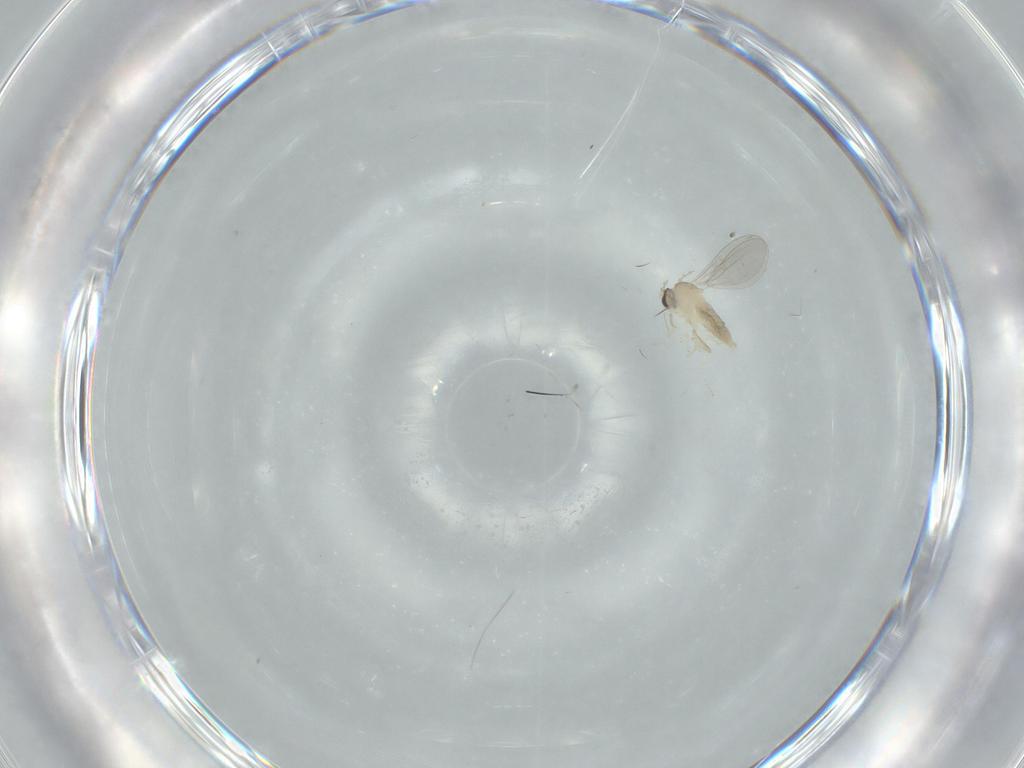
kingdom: Animalia
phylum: Arthropoda
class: Insecta
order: Diptera
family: Cecidomyiidae
